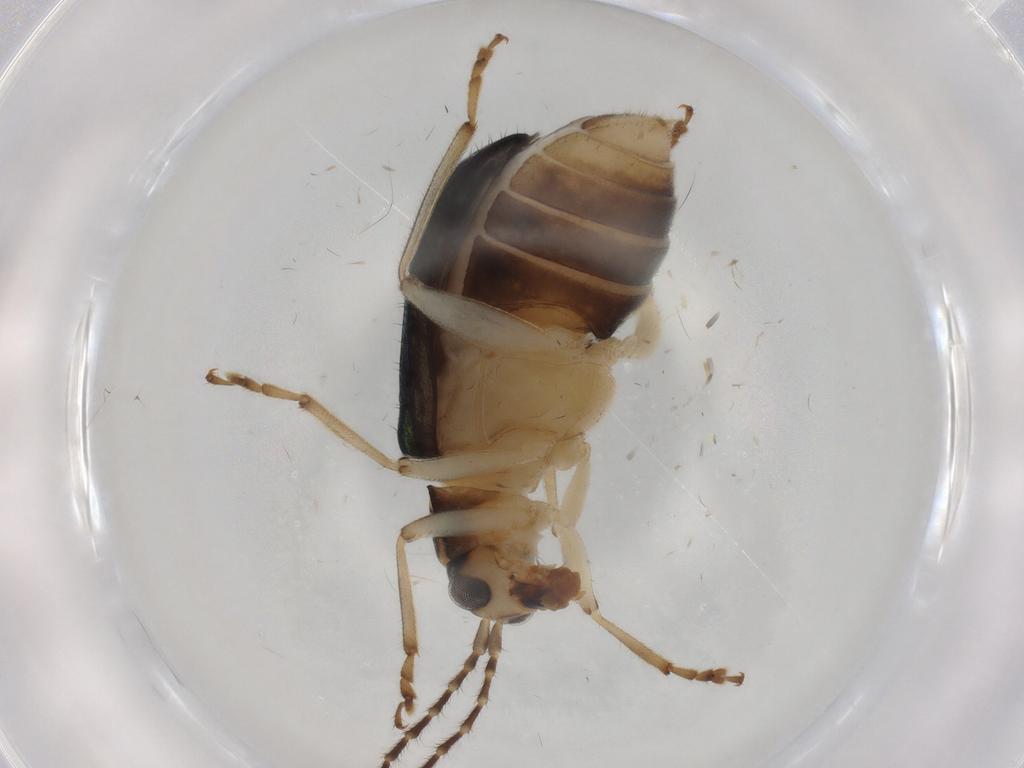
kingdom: Animalia
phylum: Arthropoda
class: Insecta
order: Coleoptera
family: Chrysomelidae
